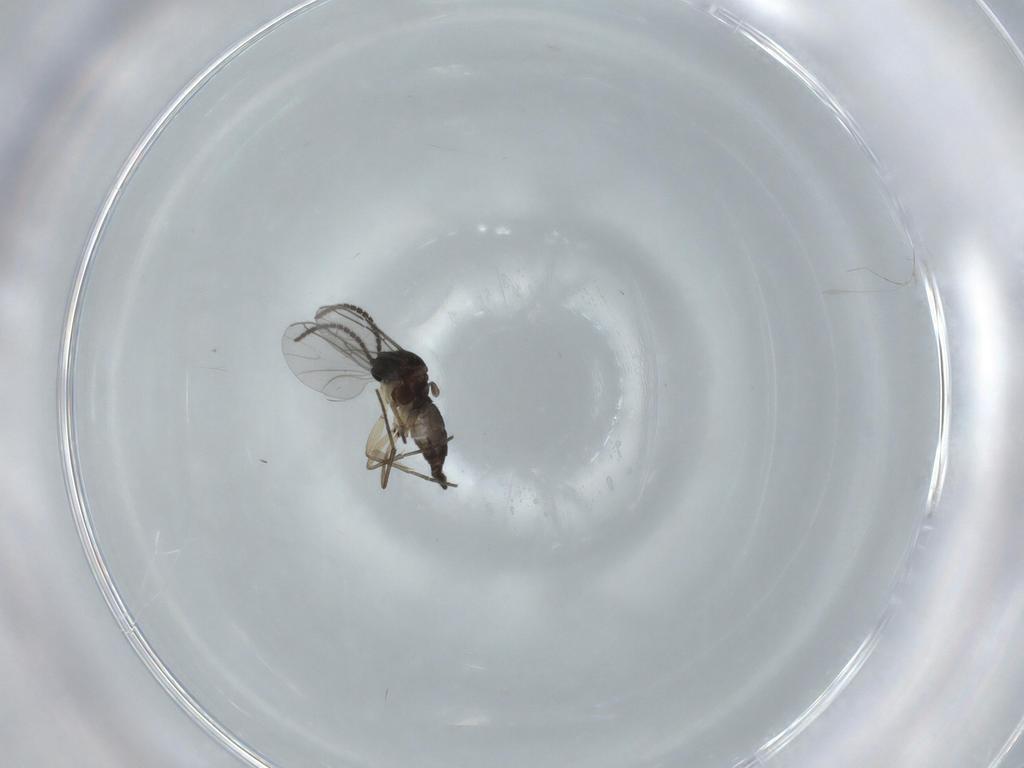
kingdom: Animalia
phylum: Arthropoda
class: Insecta
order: Diptera
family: Sciaridae
